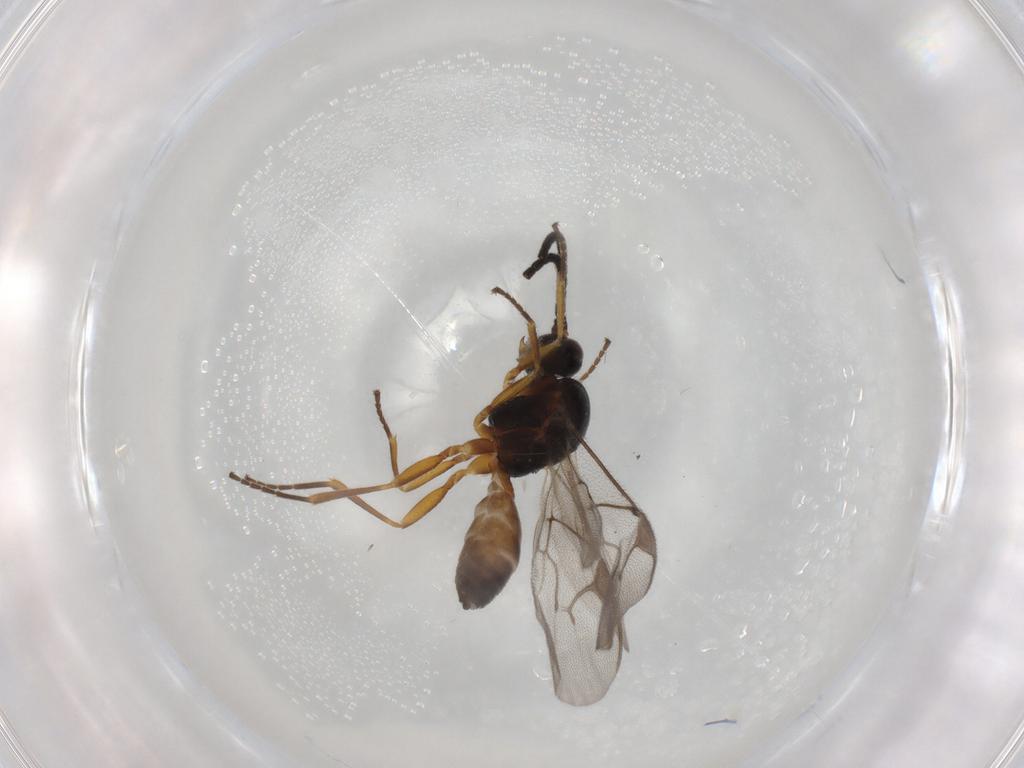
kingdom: Animalia
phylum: Arthropoda
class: Insecta
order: Hymenoptera
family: Braconidae
